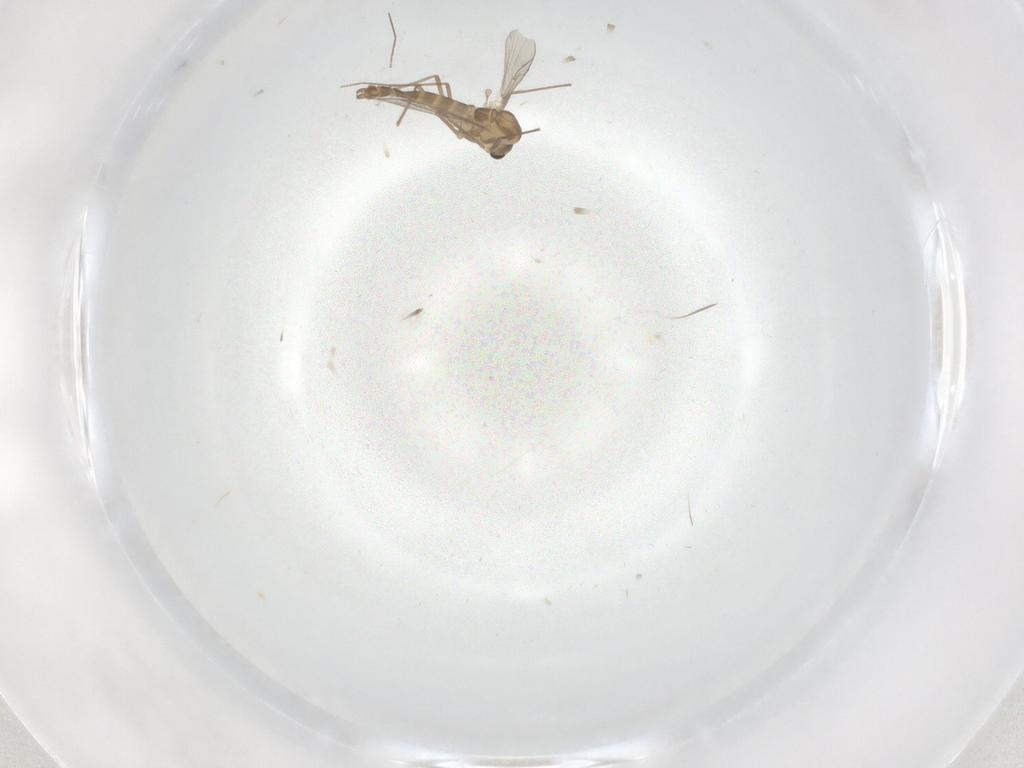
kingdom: Animalia
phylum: Arthropoda
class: Insecta
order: Diptera
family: Chironomidae
